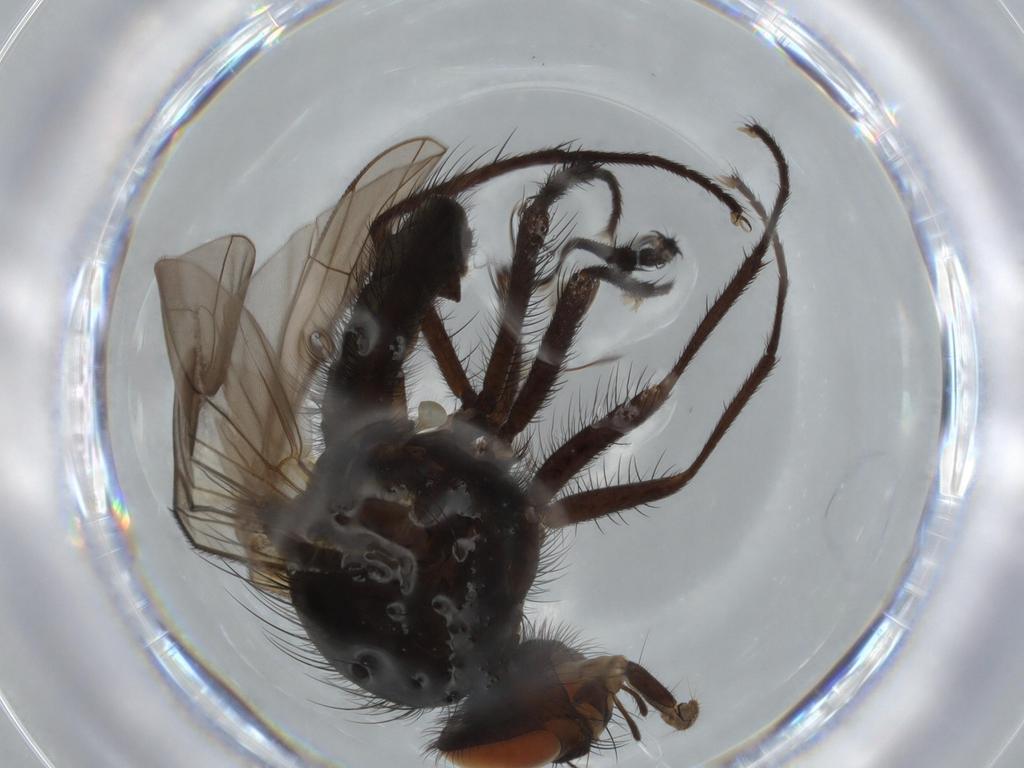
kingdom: Animalia
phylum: Arthropoda
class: Insecta
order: Diptera
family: Anthomyiidae
